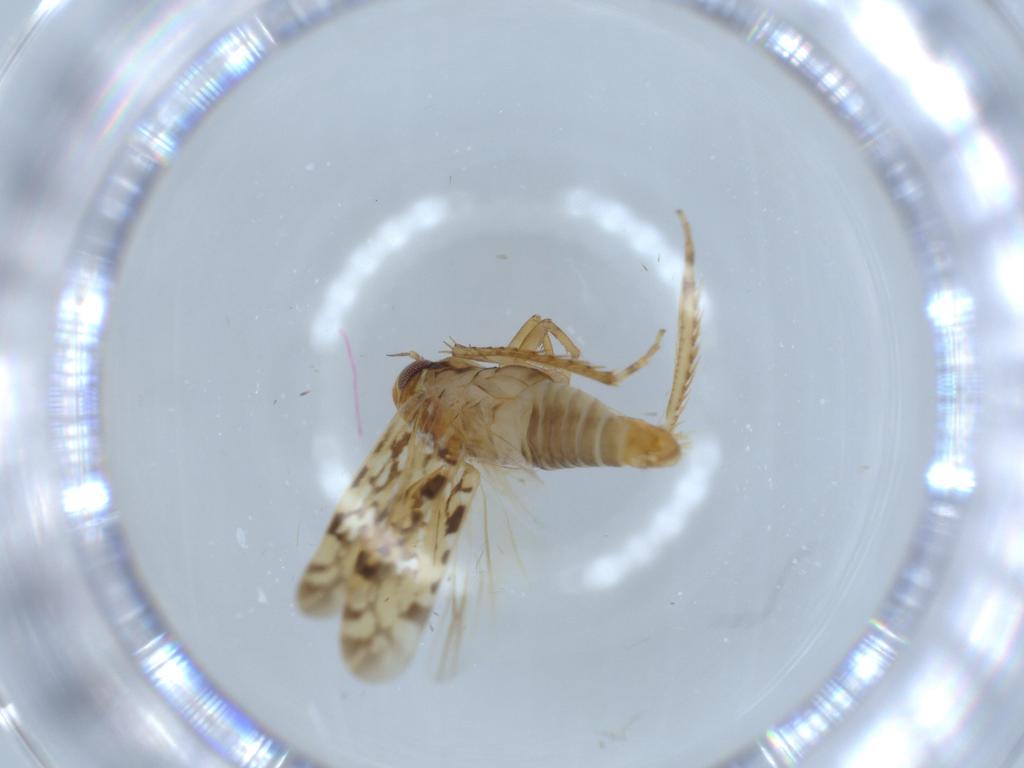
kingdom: Animalia
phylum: Arthropoda
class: Insecta
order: Hemiptera
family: Cicadellidae
